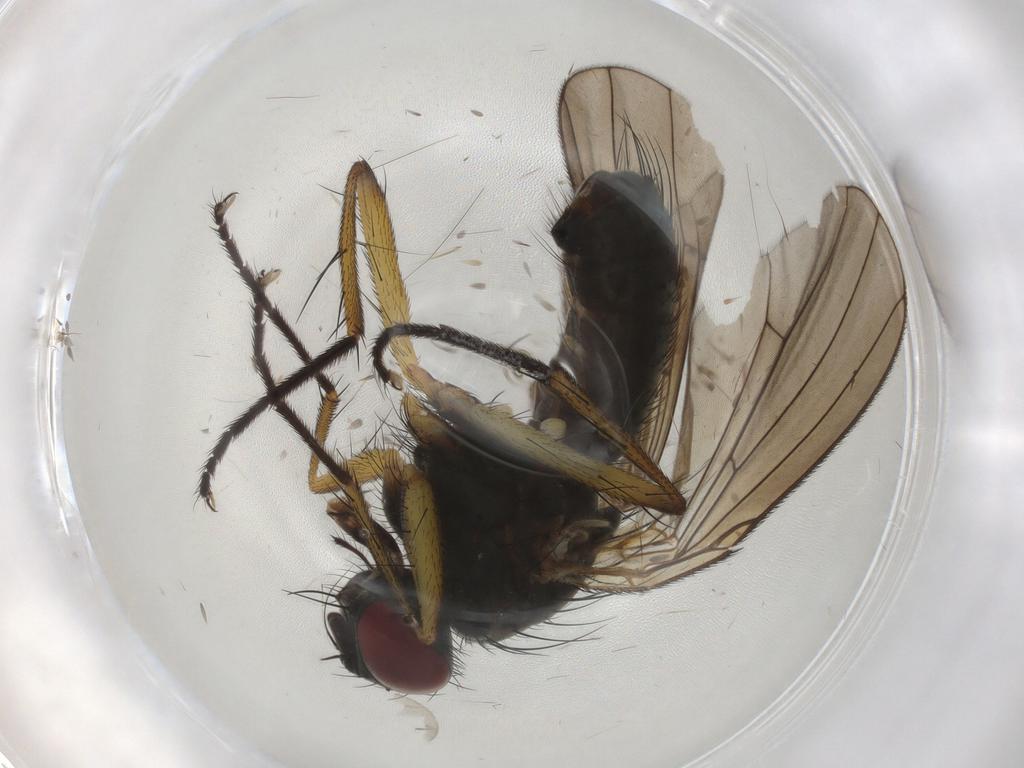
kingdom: Animalia
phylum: Arthropoda
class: Insecta
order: Diptera
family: Muscidae
